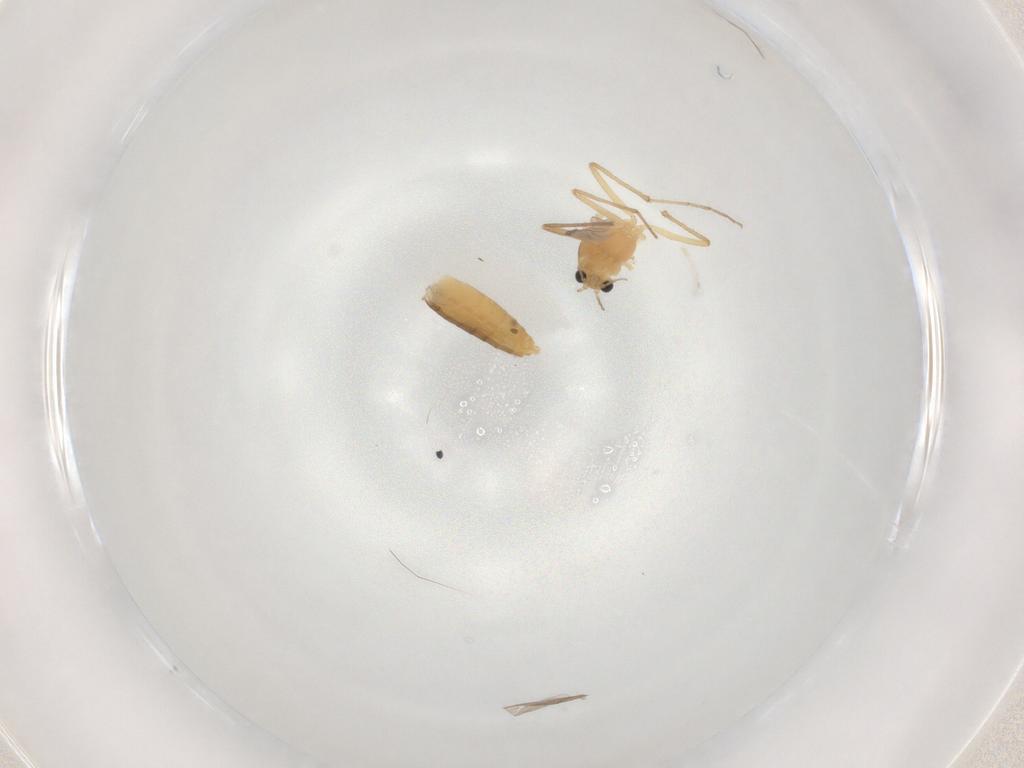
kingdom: Animalia
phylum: Arthropoda
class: Insecta
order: Diptera
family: Chironomidae
